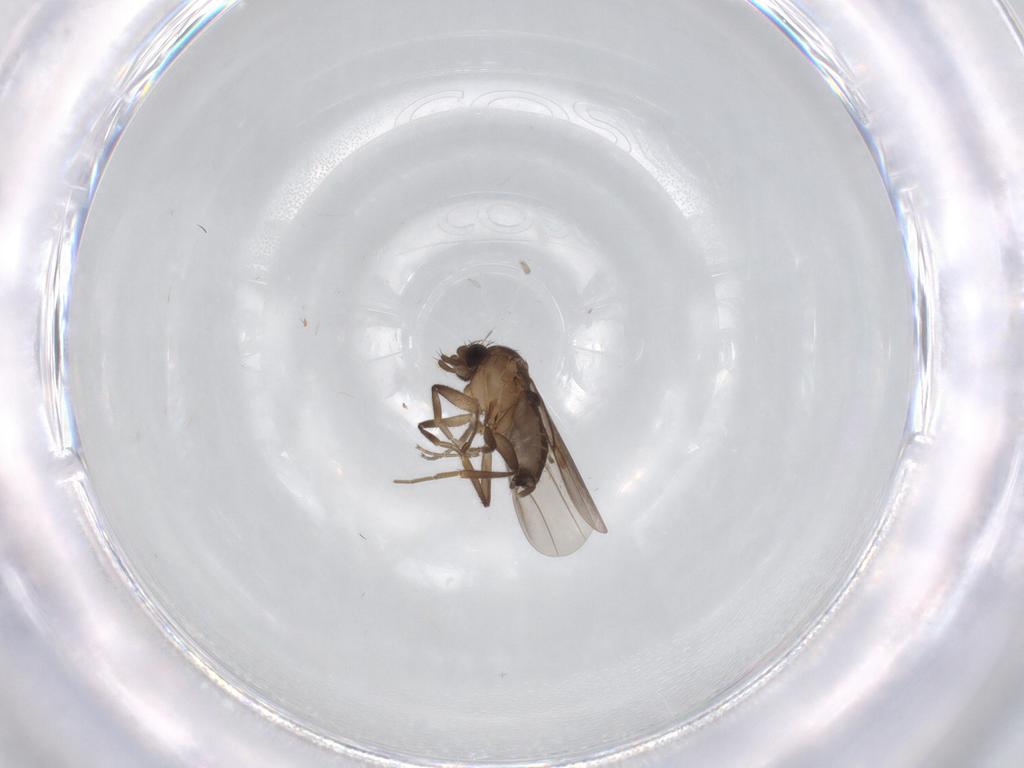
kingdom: Animalia
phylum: Arthropoda
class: Insecta
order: Diptera
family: Phoridae
